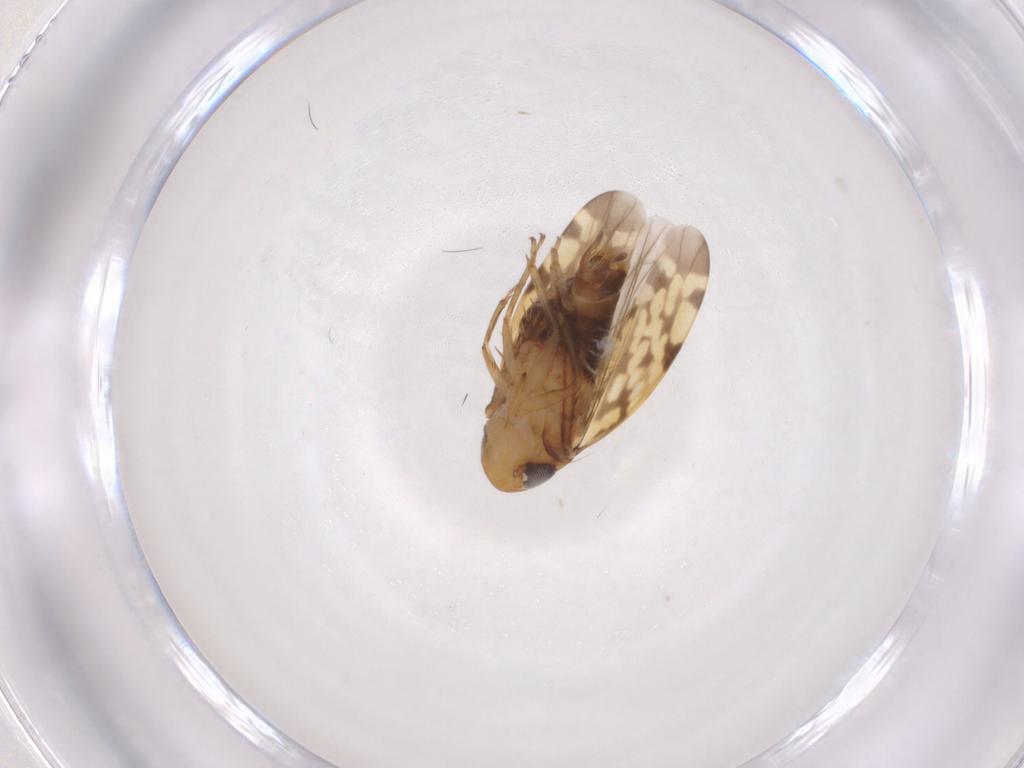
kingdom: Animalia
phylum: Arthropoda
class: Insecta
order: Hemiptera
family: Cicadellidae
